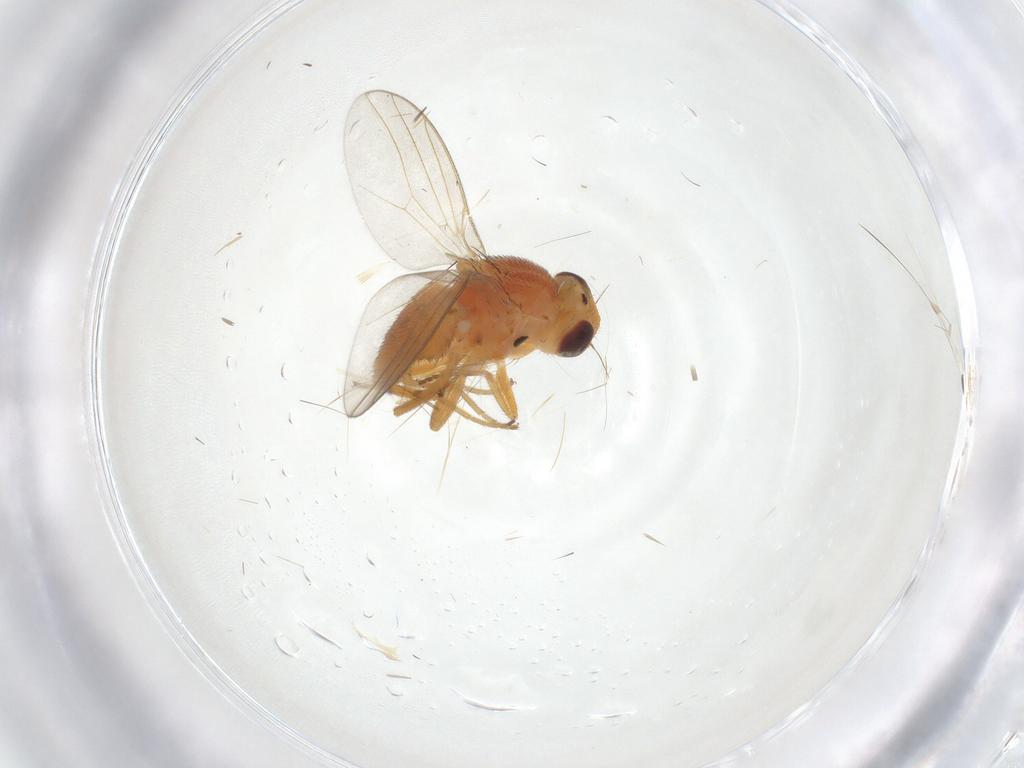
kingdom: Animalia
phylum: Arthropoda
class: Insecta
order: Diptera
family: Chloropidae
